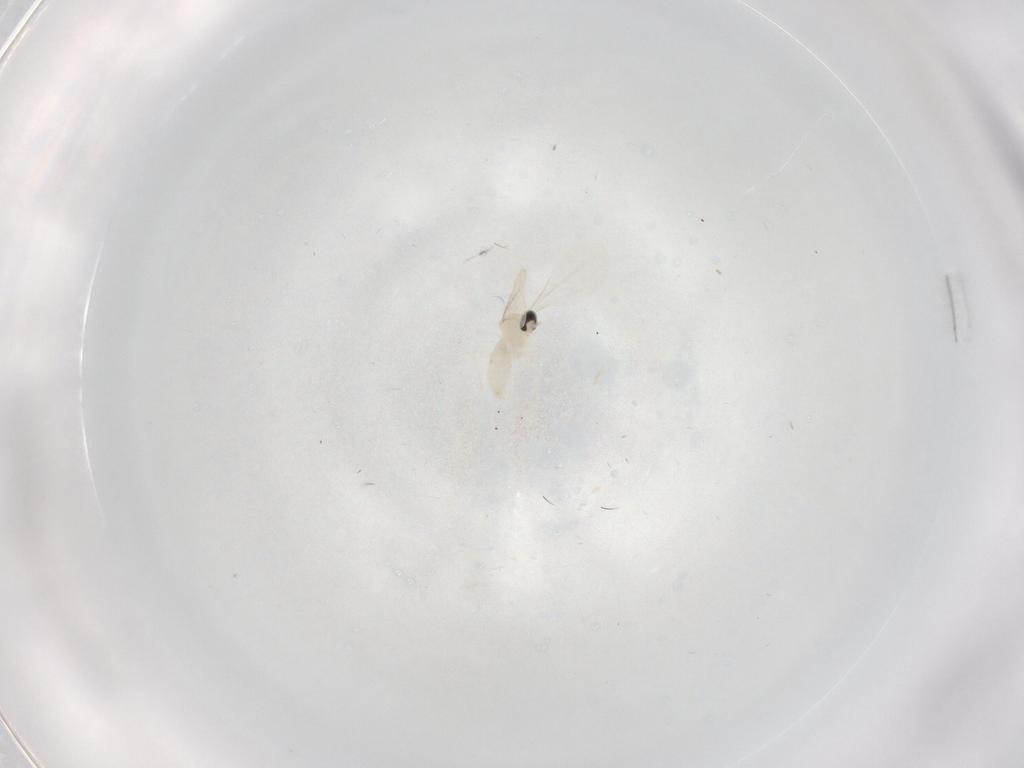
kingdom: Animalia
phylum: Arthropoda
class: Insecta
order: Diptera
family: Cecidomyiidae
